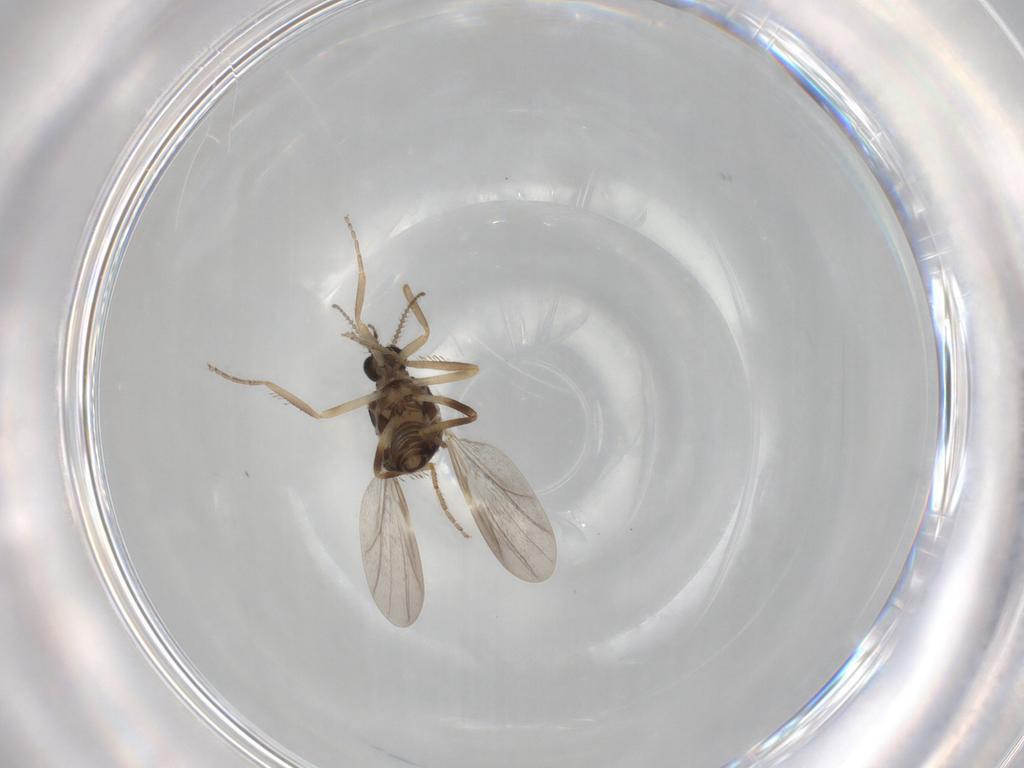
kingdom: Animalia
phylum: Arthropoda
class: Insecta
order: Diptera
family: Ceratopogonidae
